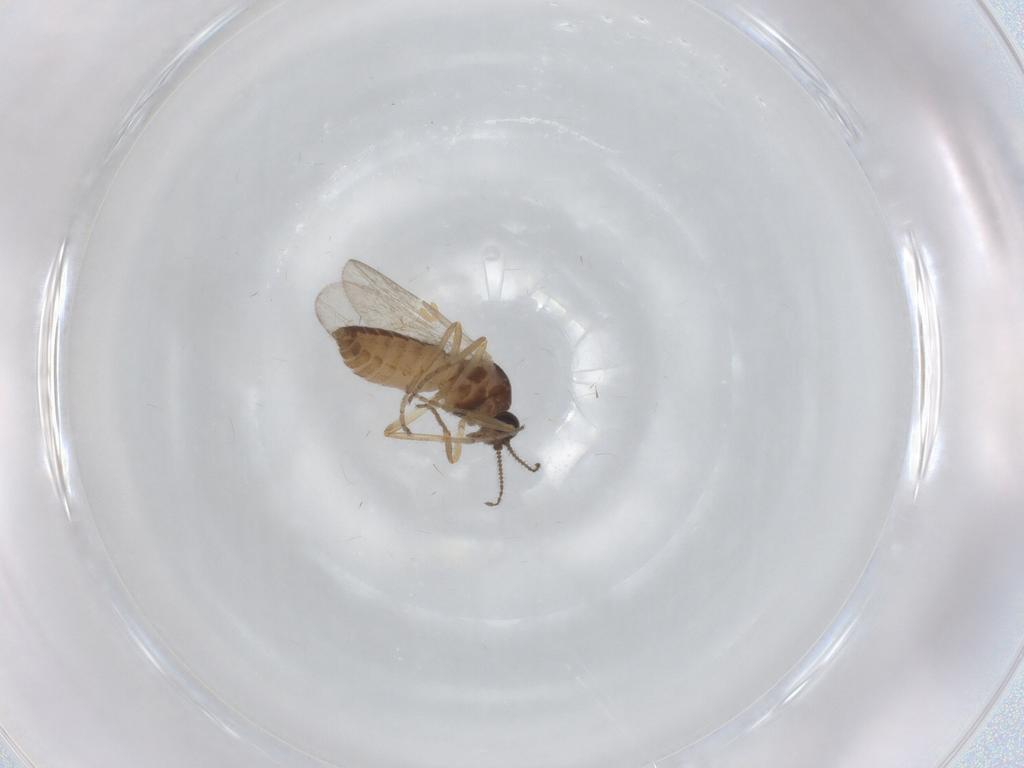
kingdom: Animalia
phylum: Arthropoda
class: Insecta
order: Diptera
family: Ceratopogonidae
